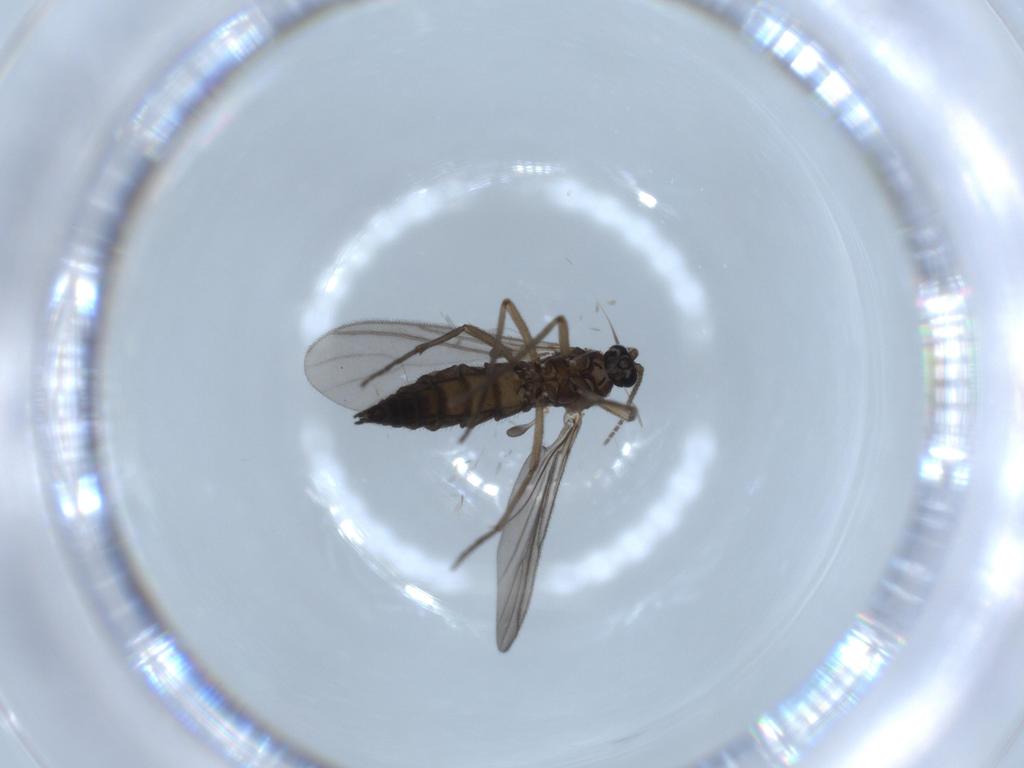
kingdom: Animalia
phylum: Arthropoda
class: Insecta
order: Diptera
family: Sciaridae
